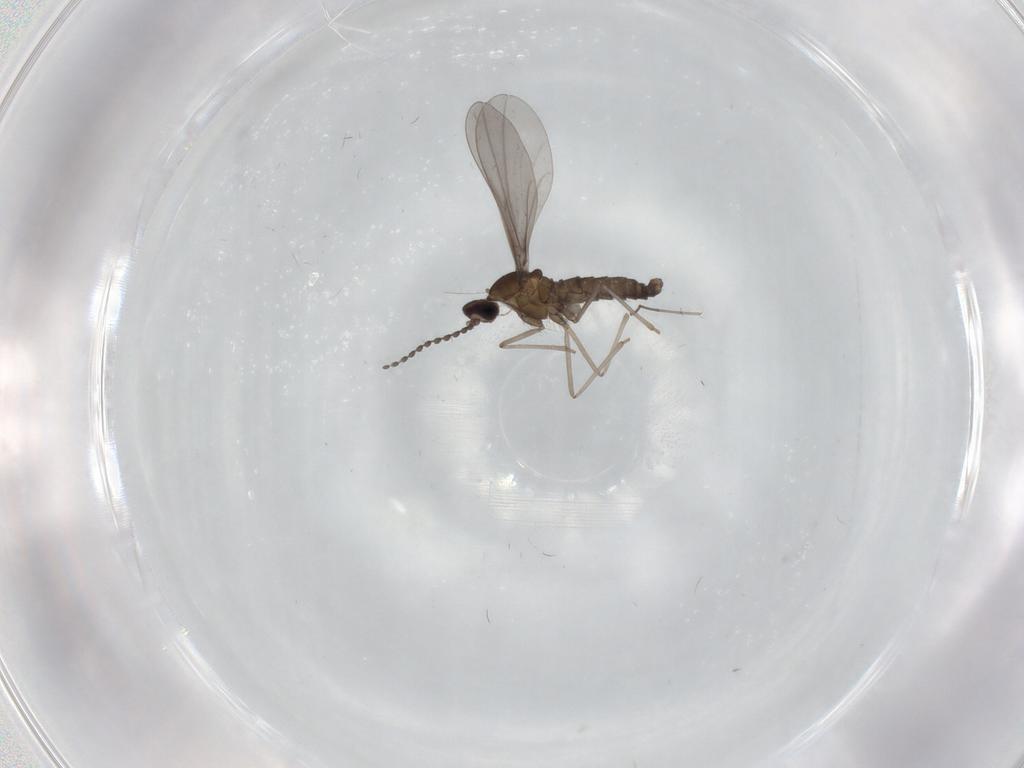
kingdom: Animalia
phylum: Arthropoda
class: Insecta
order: Diptera
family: Cecidomyiidae
